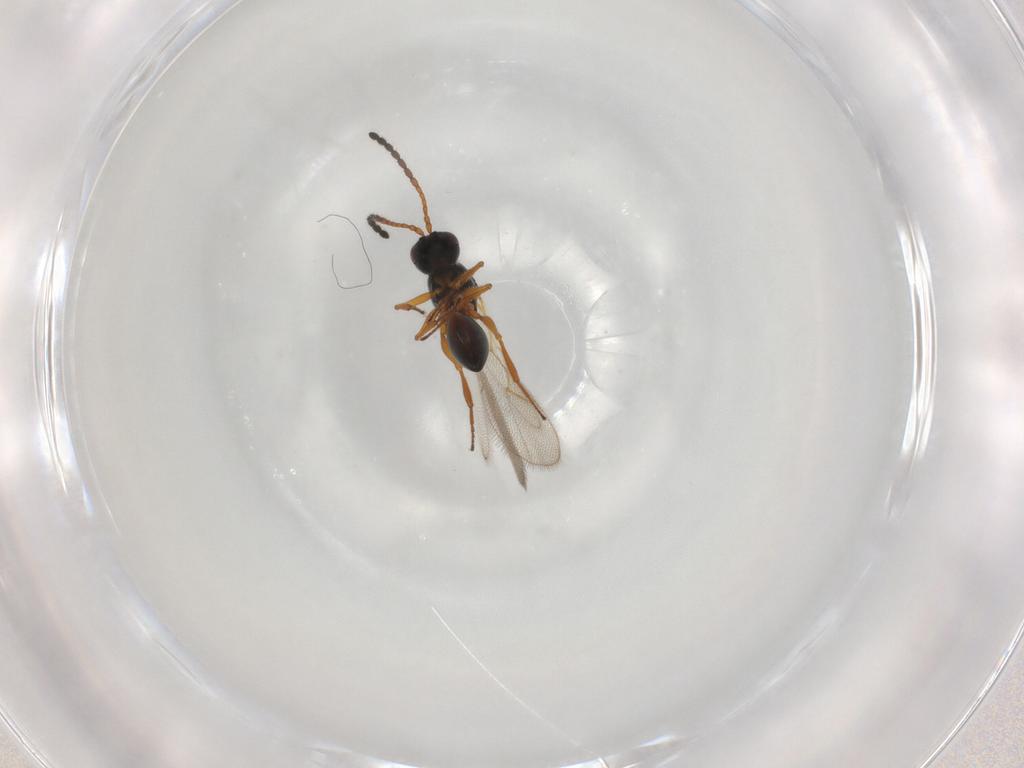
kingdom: Animalia
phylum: Arthropoda
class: Insecta
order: Hymenoptera
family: Figitidae
